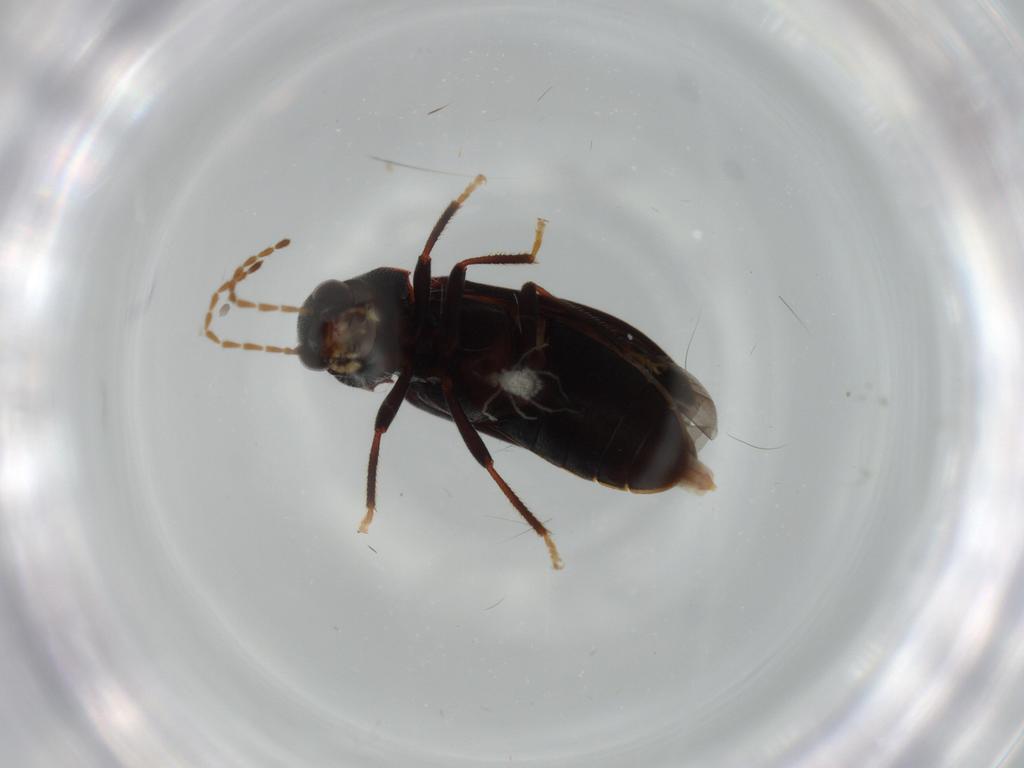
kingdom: Animalia
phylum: Arthropoda
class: Insecta
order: Coleoptera
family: Ptilodactylidae
